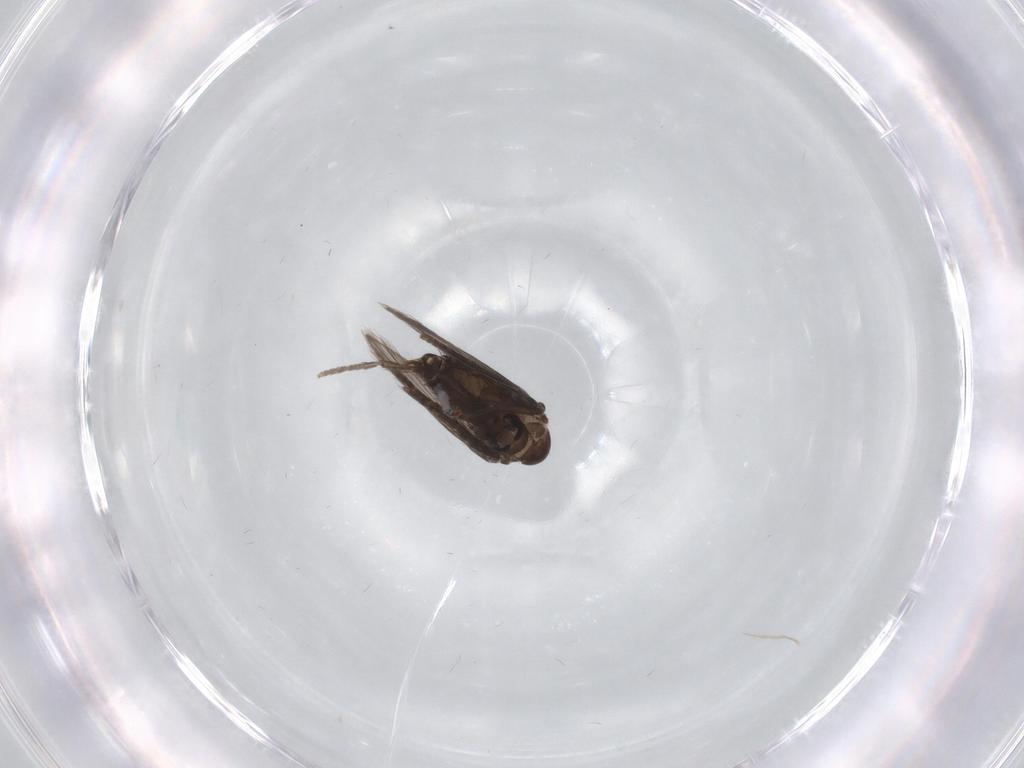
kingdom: Animalia
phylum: Arthropoda
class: Insecta
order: Diptera
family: Psychodidae
